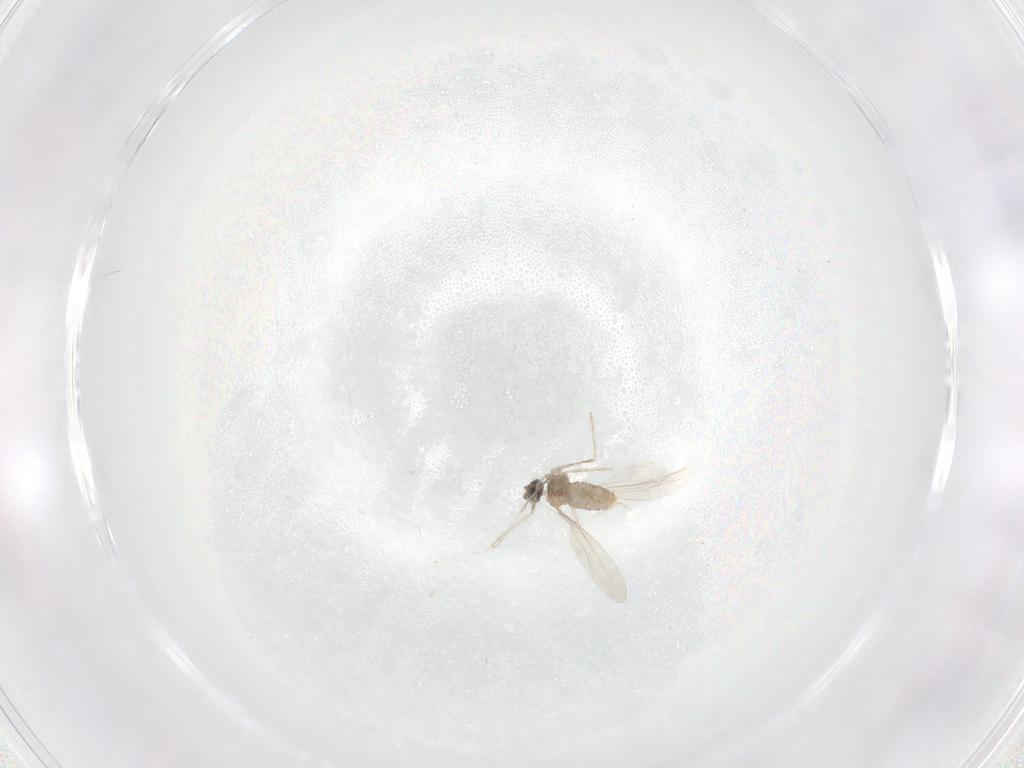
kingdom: Animalia
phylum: Arthropoda
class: Insecta
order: Diptera
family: Cecidomyiidae
